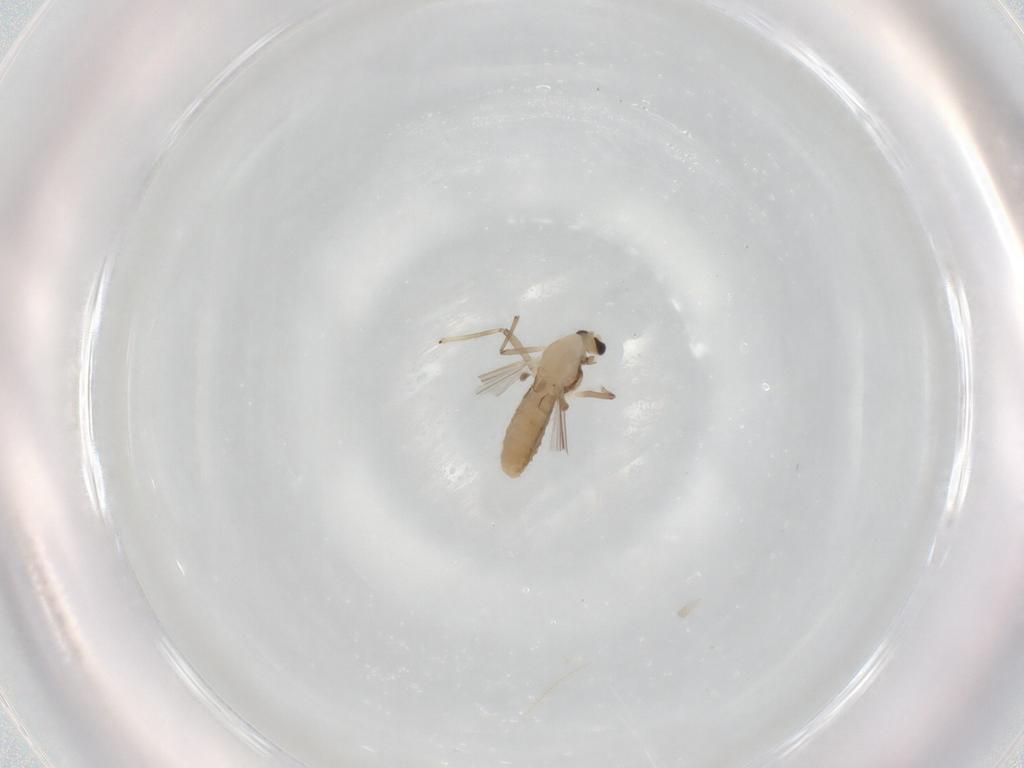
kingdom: Animalia
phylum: Arthropoda
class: Insecta
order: Diptera
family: Chironomidae
